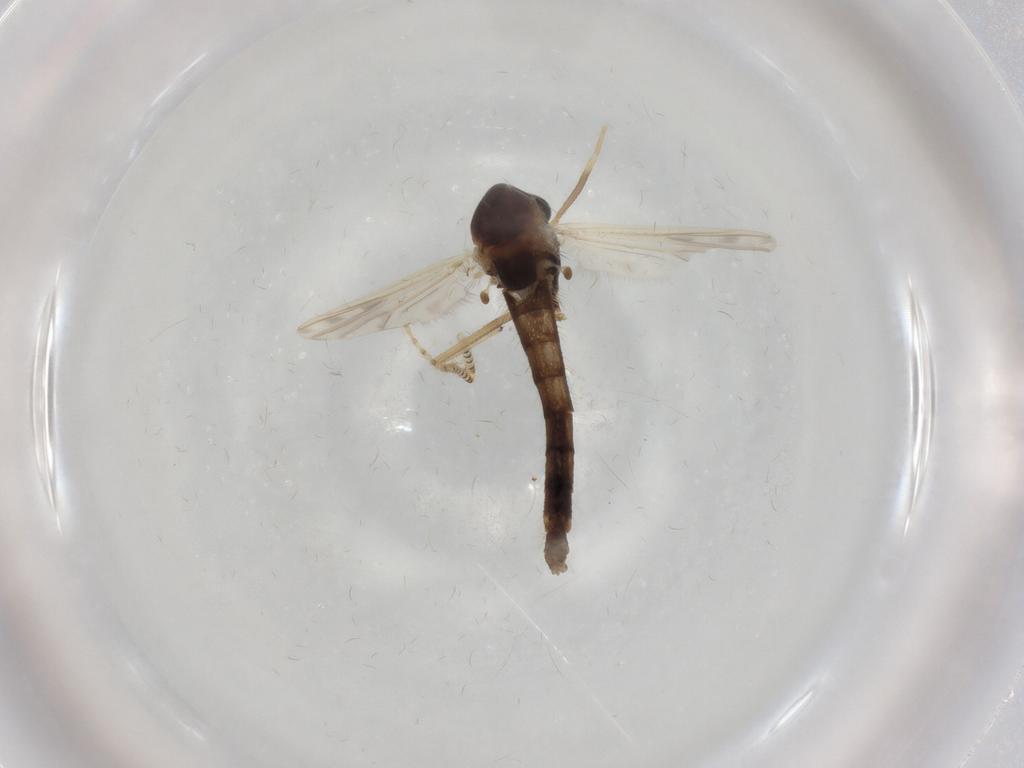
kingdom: Animalia
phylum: Arthropoda
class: Insecta
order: Diptera
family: Chironomidae
